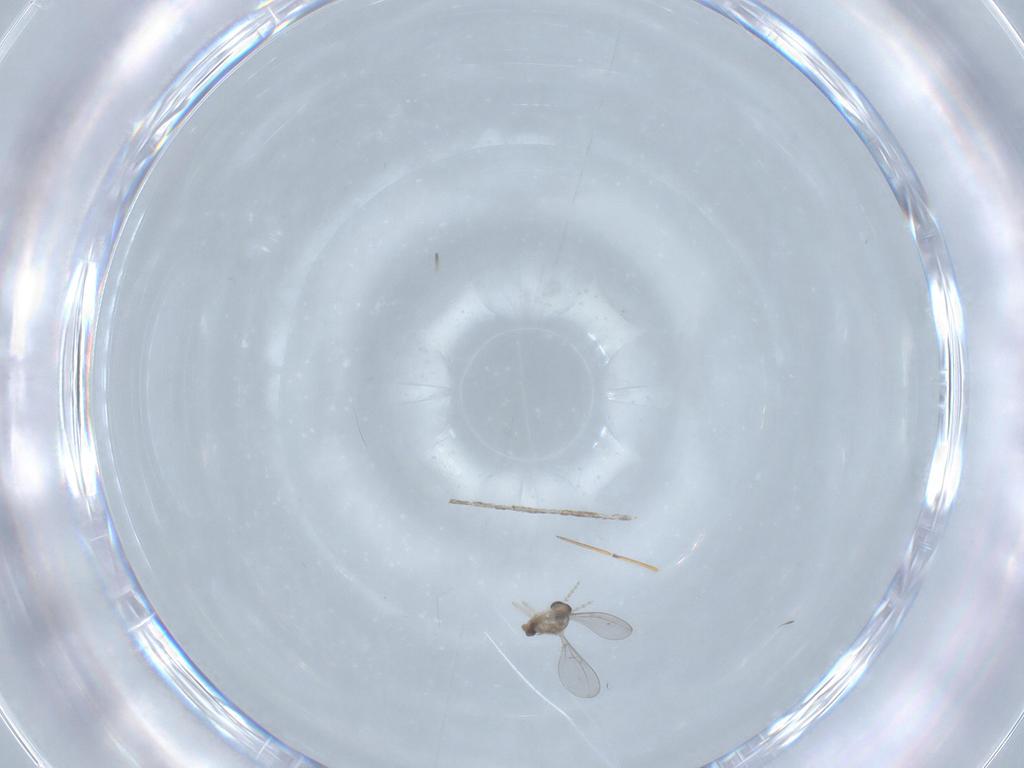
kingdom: Animalia
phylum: Arthropoda
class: Insecta
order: Diptera
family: Cecidomyiidae
